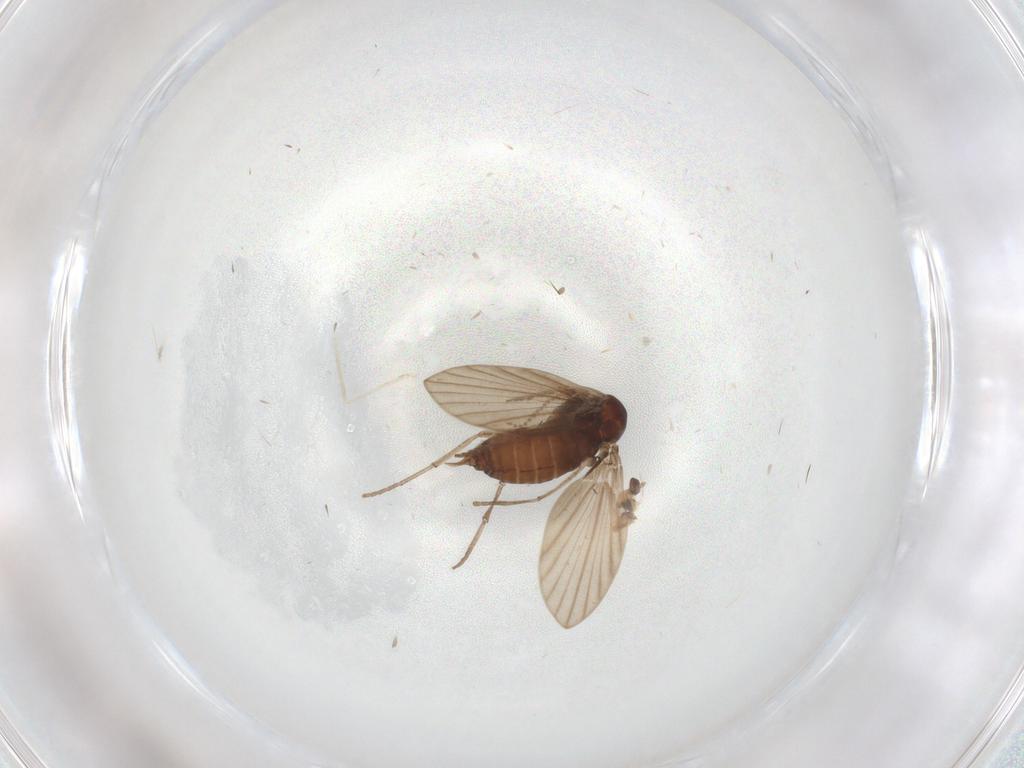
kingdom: Animalia
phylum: Arthropoda
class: Insecta
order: Diptera
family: Psychodidae
